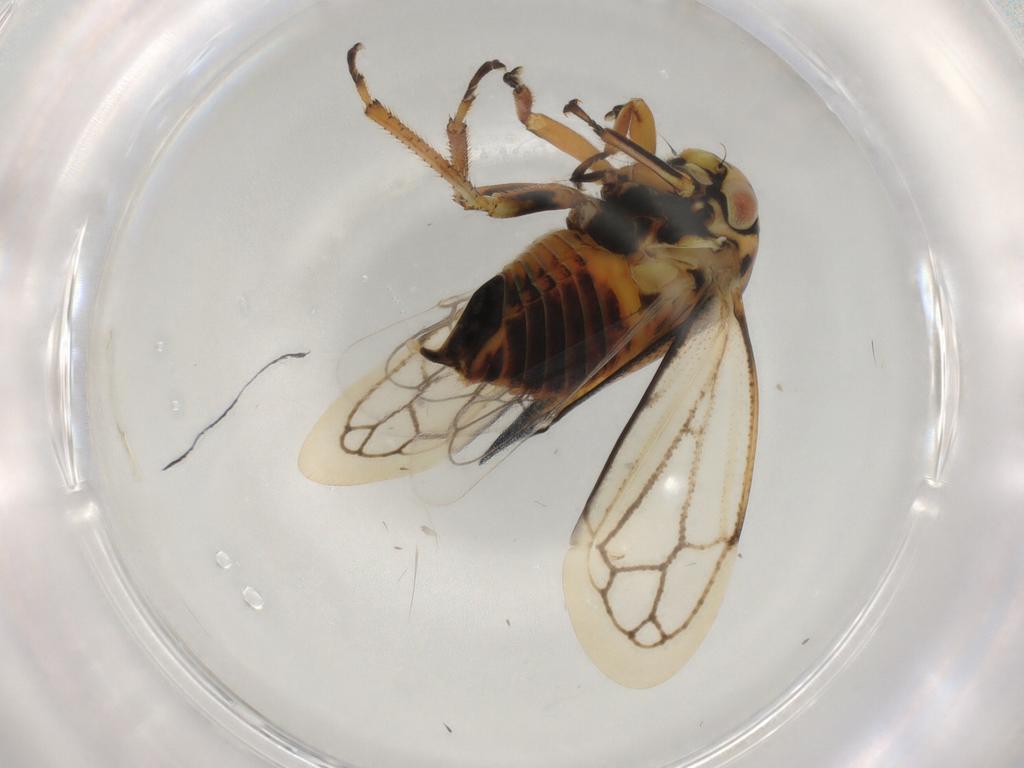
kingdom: Animalia
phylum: Arthropoda
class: Insecta
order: Hemiptera
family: Membracidae
